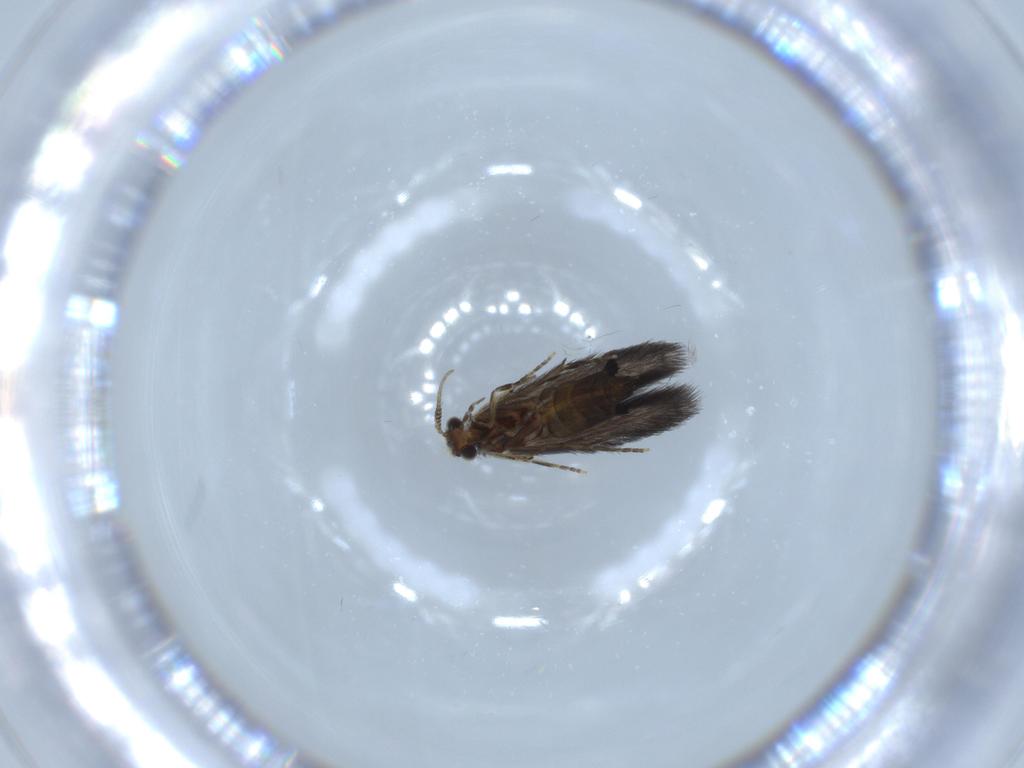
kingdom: Animalia
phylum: Arthropoda
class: Insecta
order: Trichoptera
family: Hydroptilidae
